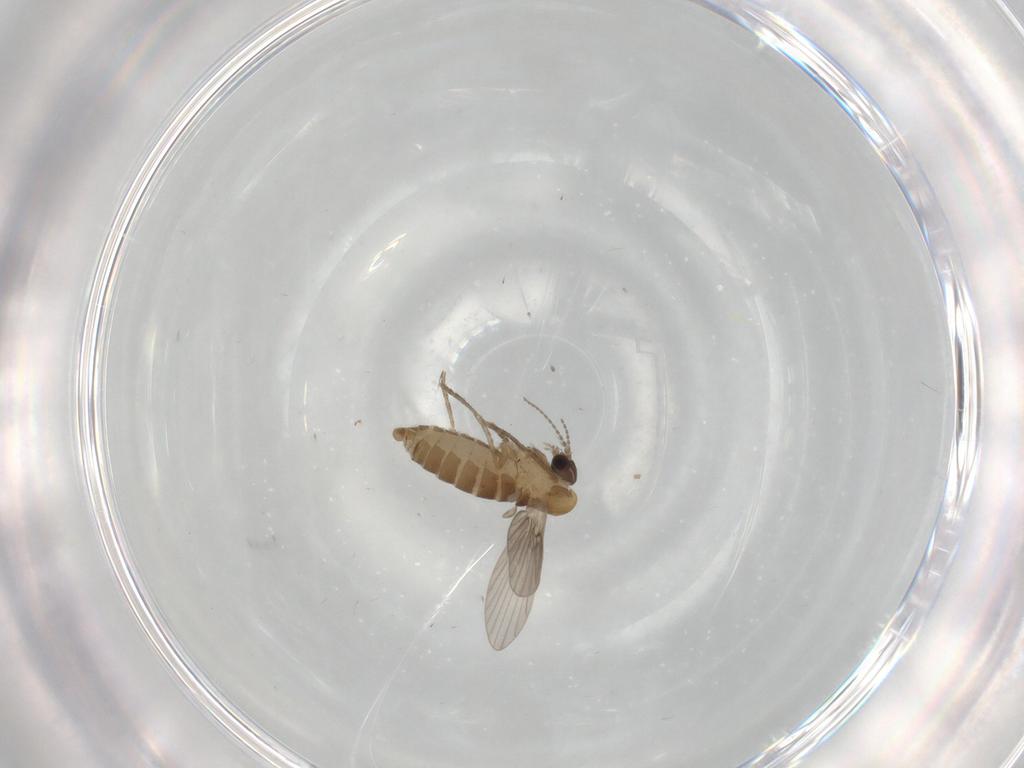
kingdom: Animalia
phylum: Arthropoda
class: Insecta
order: Diptera
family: Psychodidae
